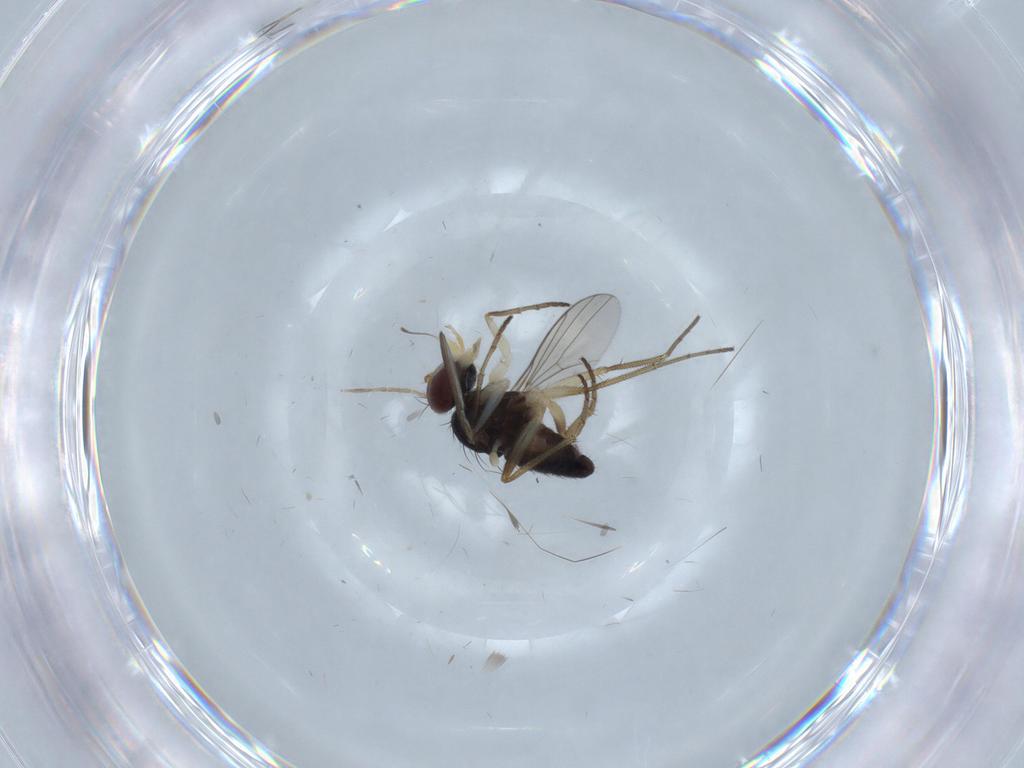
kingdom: Animalia
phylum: Arthropoda
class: Insecta
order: Diptera
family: Dolichopodidae
